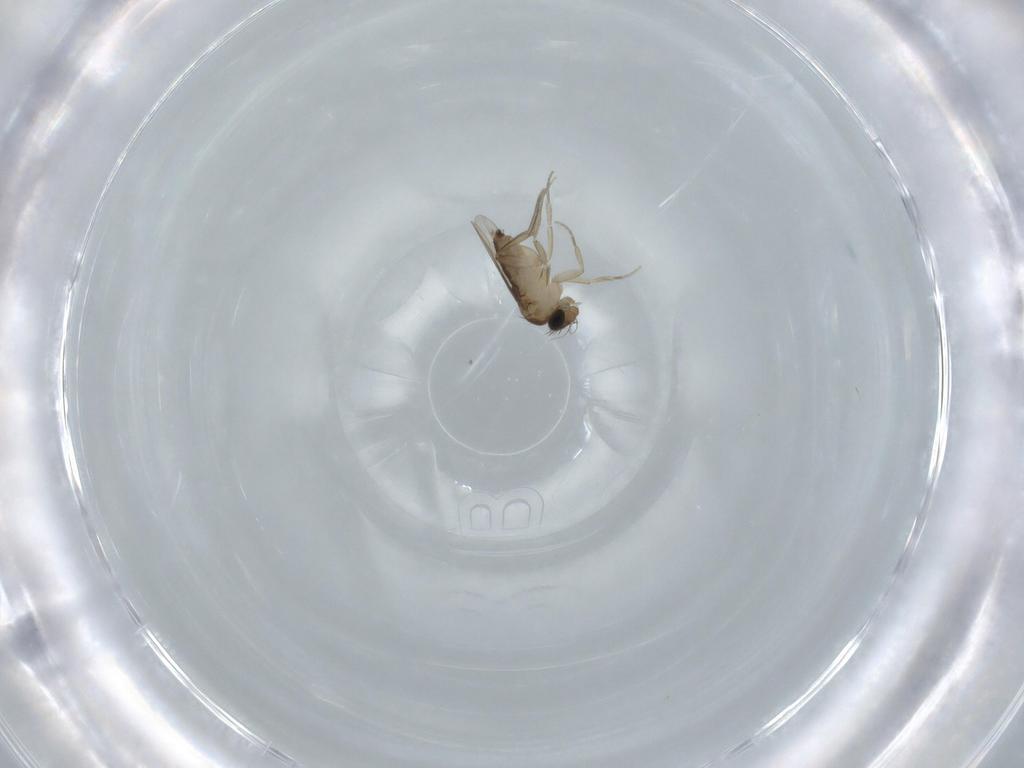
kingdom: Animalia
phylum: Arthropoda
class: Insecta
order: Diptera
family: Phoridae
